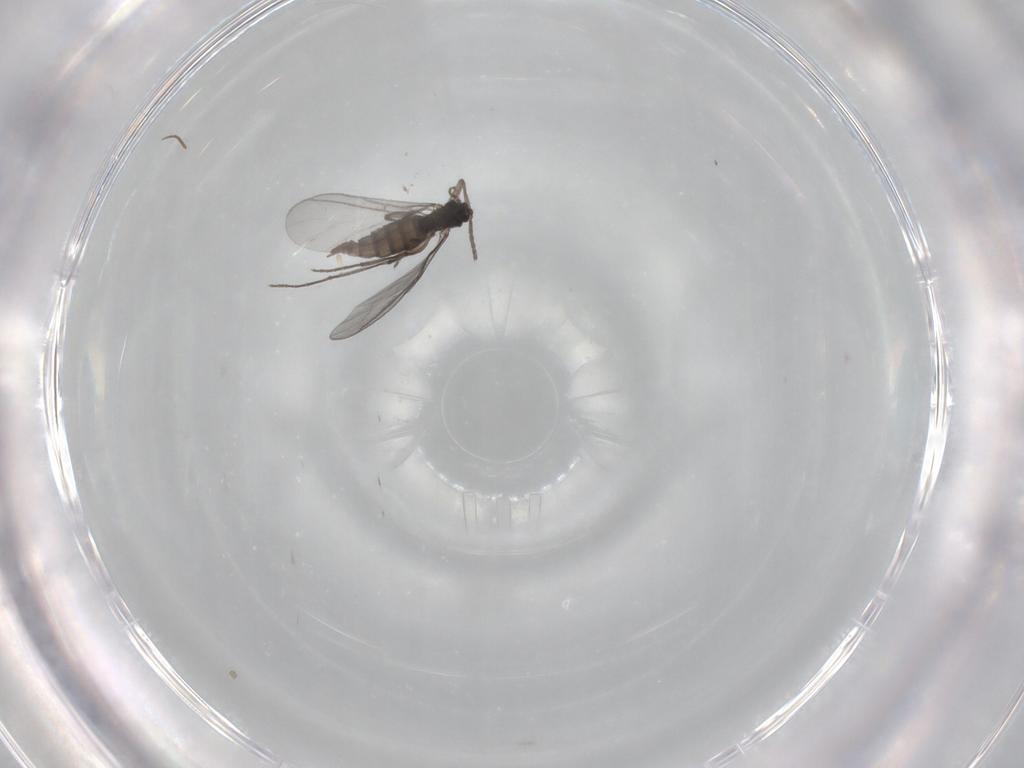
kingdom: Animalia
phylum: Arthropoda
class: Insecta
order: Diptera
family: Sciaridae
